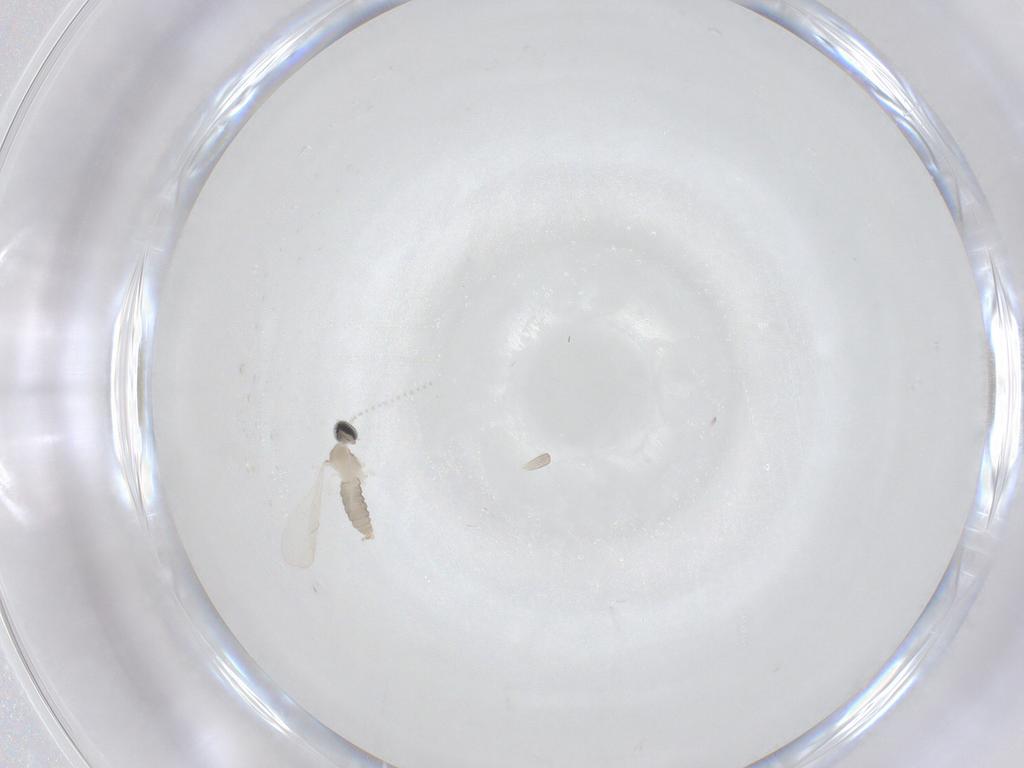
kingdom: Animalia
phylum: Arthropoda
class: Insecta
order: Diptera
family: Cecidomyiidae
